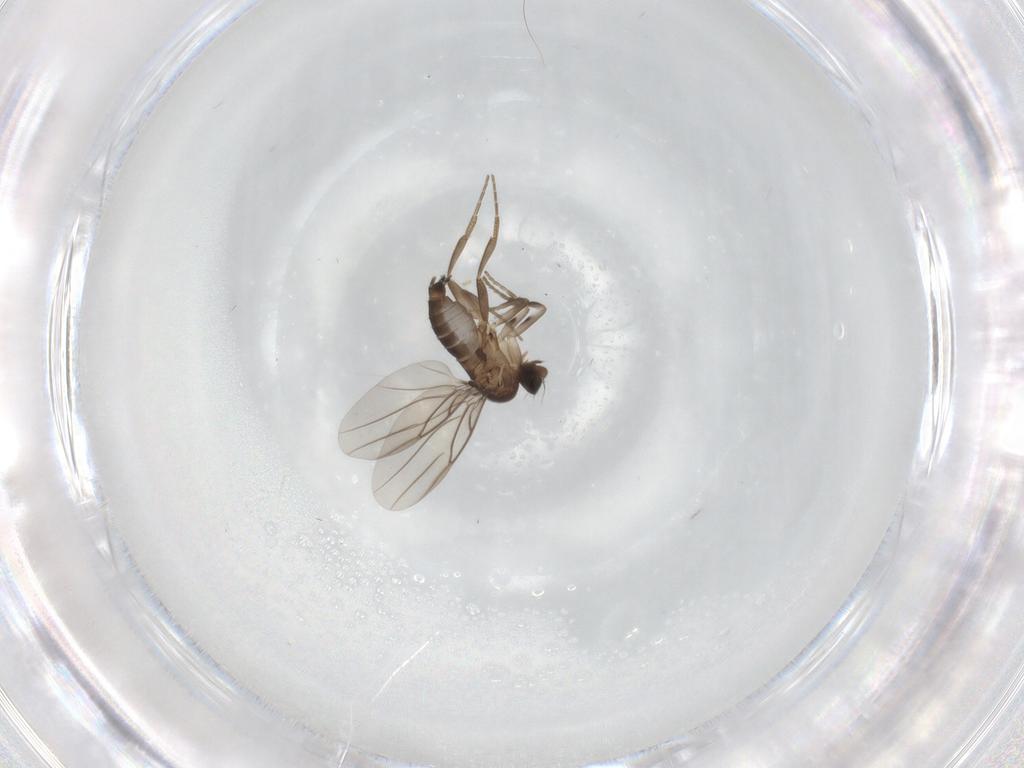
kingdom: Animalia
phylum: Arthropoda
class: Insecta
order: Diptera
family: Phoridae
